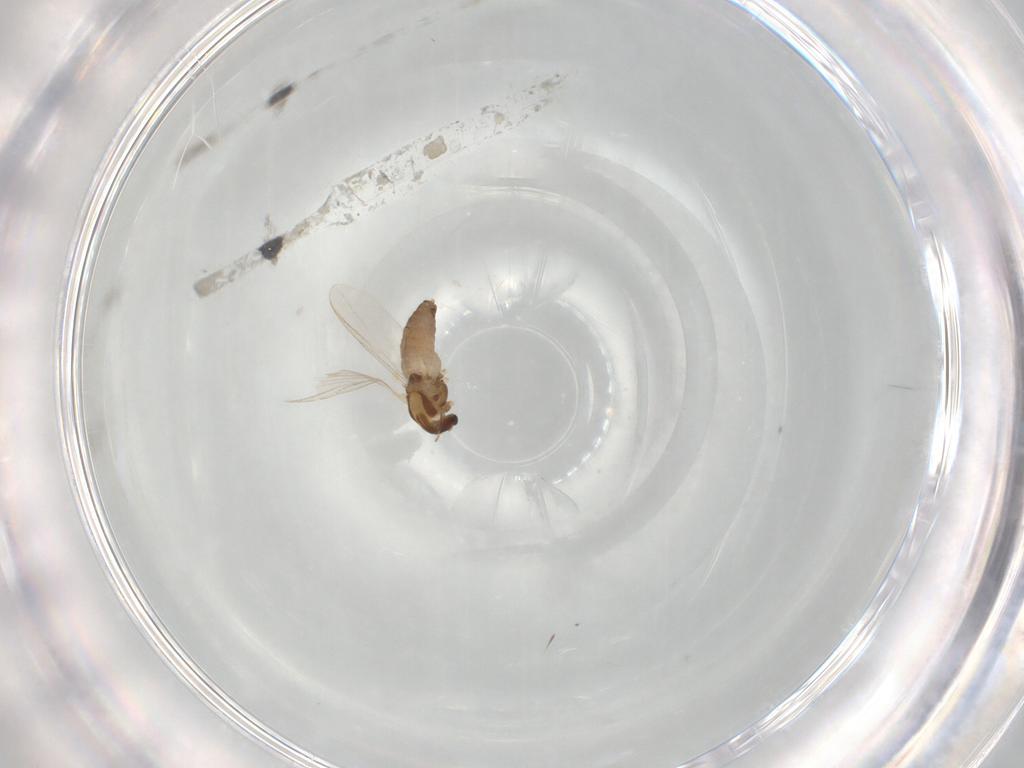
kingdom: Animalia
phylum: Arthropoda
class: Insecta
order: Diptera
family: Chironomidae
